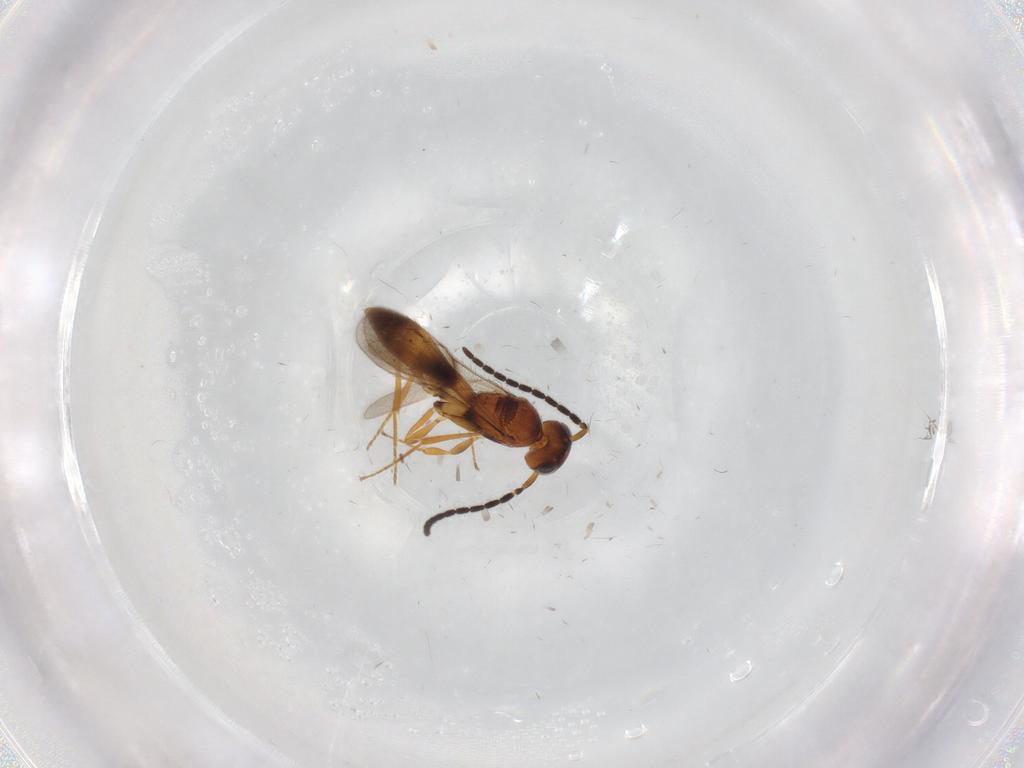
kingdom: Animalia
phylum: Arthropoda
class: Insecta
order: Hymenoptera
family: Scelionidae
